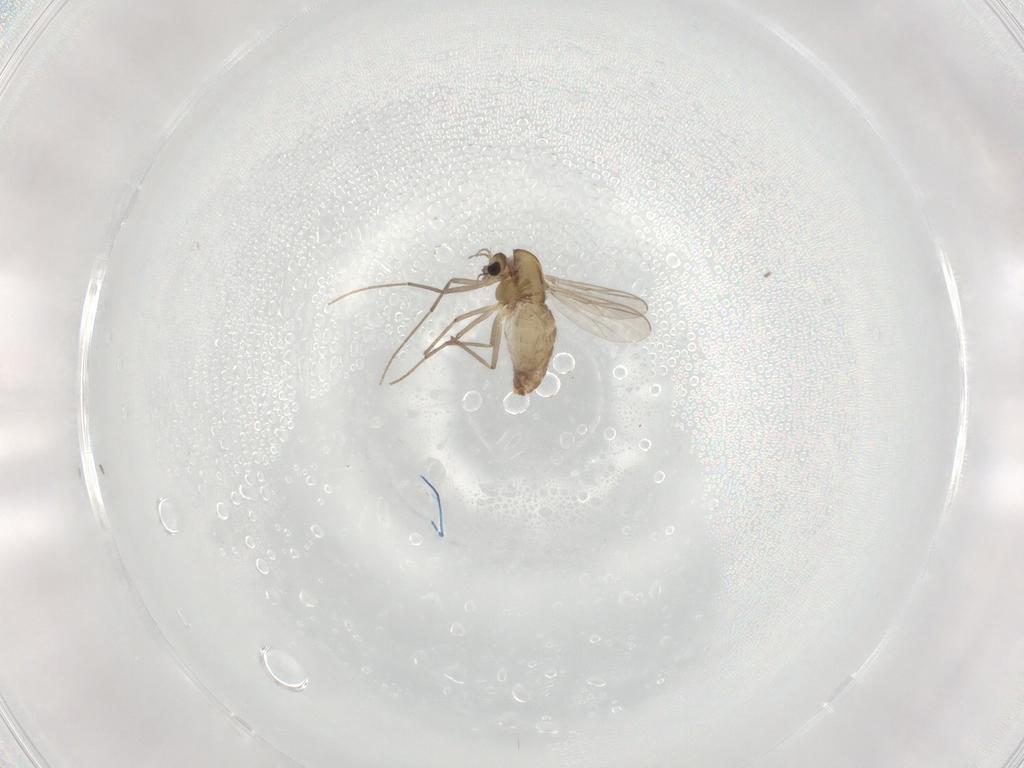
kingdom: Animalia
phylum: Arthropoda
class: Insecta
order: Diptera
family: Chironomidae
